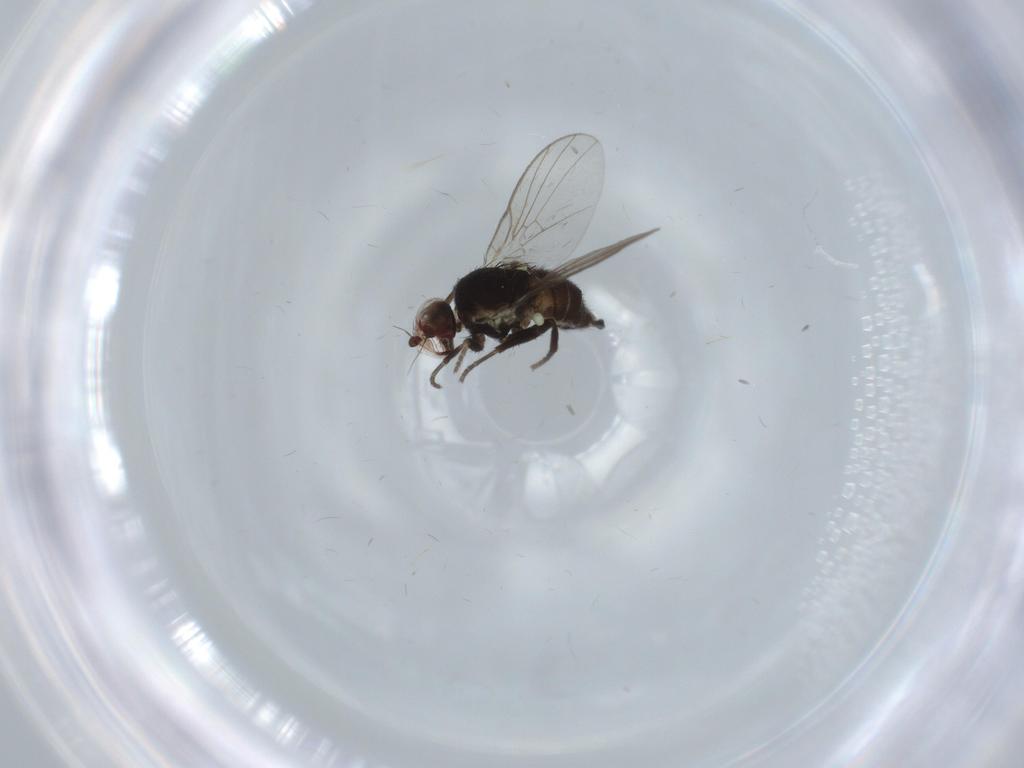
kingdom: Animalia
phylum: Arthropoda
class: Insecta
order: Diptera
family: Agromyzidae
